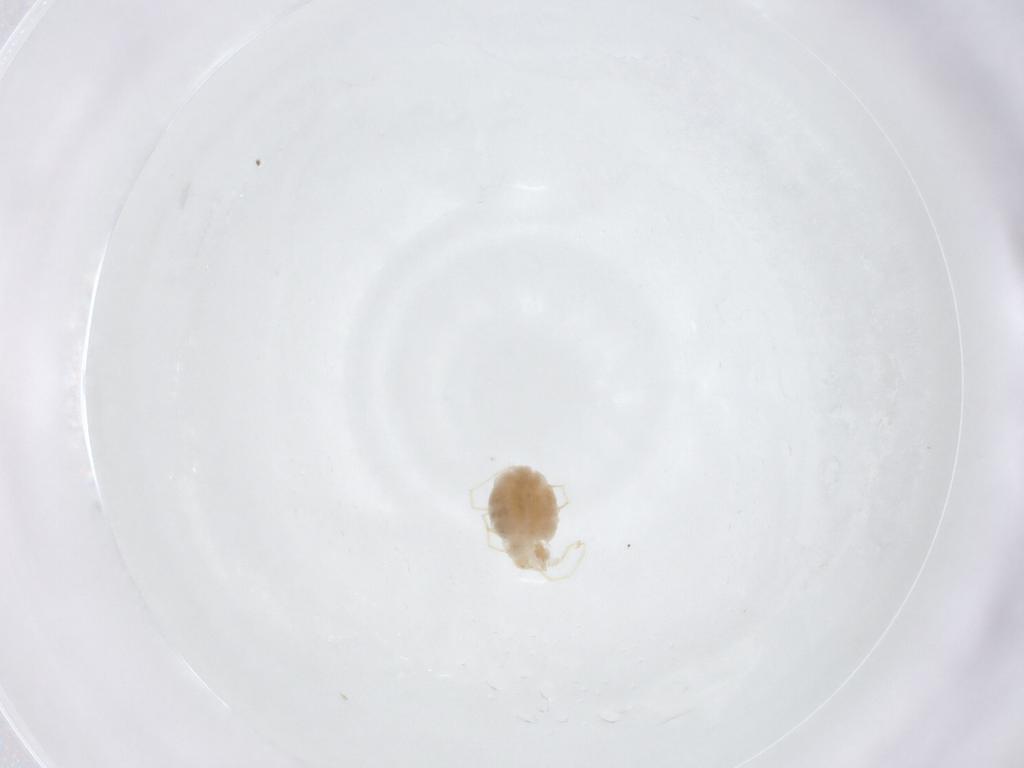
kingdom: Animalia
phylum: Arthropoda
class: Arachnida
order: Trombidiformes
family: Erythraeidae
